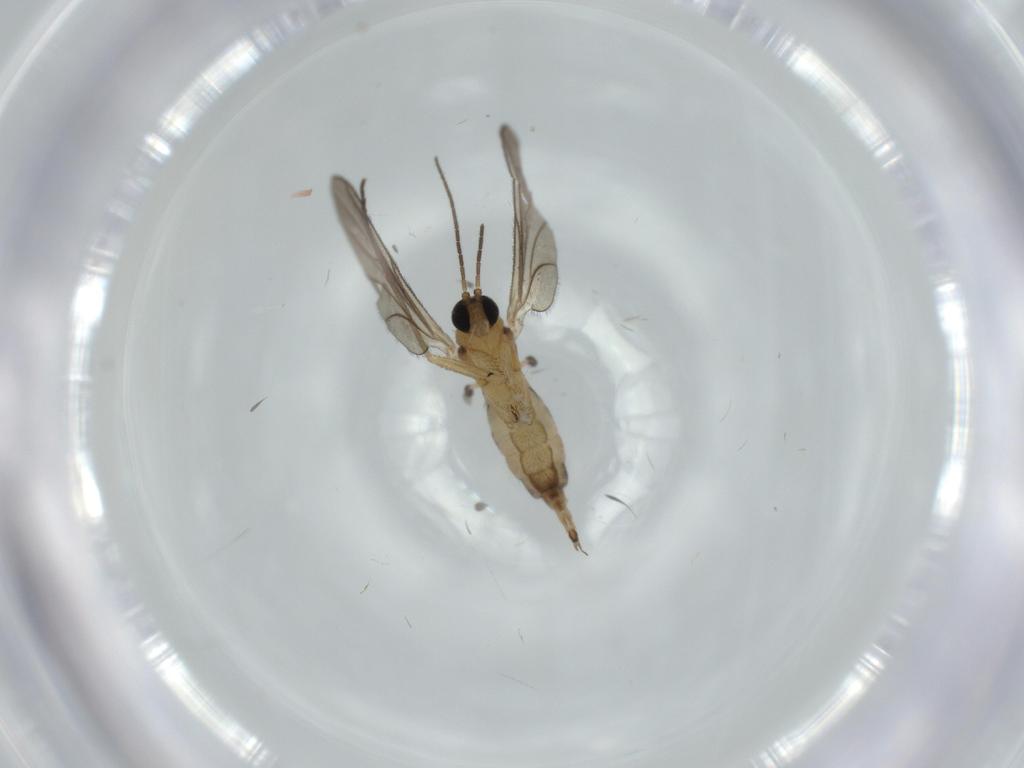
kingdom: Animalia
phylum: Arthropoda
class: Insecta
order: Diptera
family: Sciaridae
